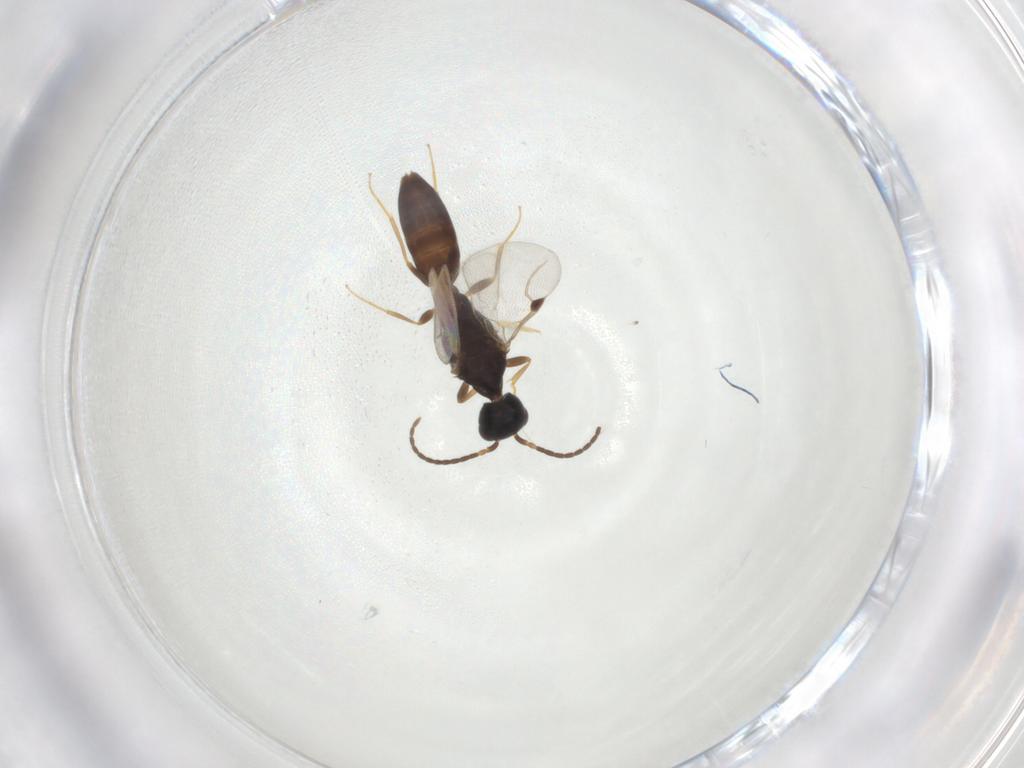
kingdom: Animalia
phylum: Arthropoda
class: Insecta
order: Hymenoptera
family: Bethylidae
